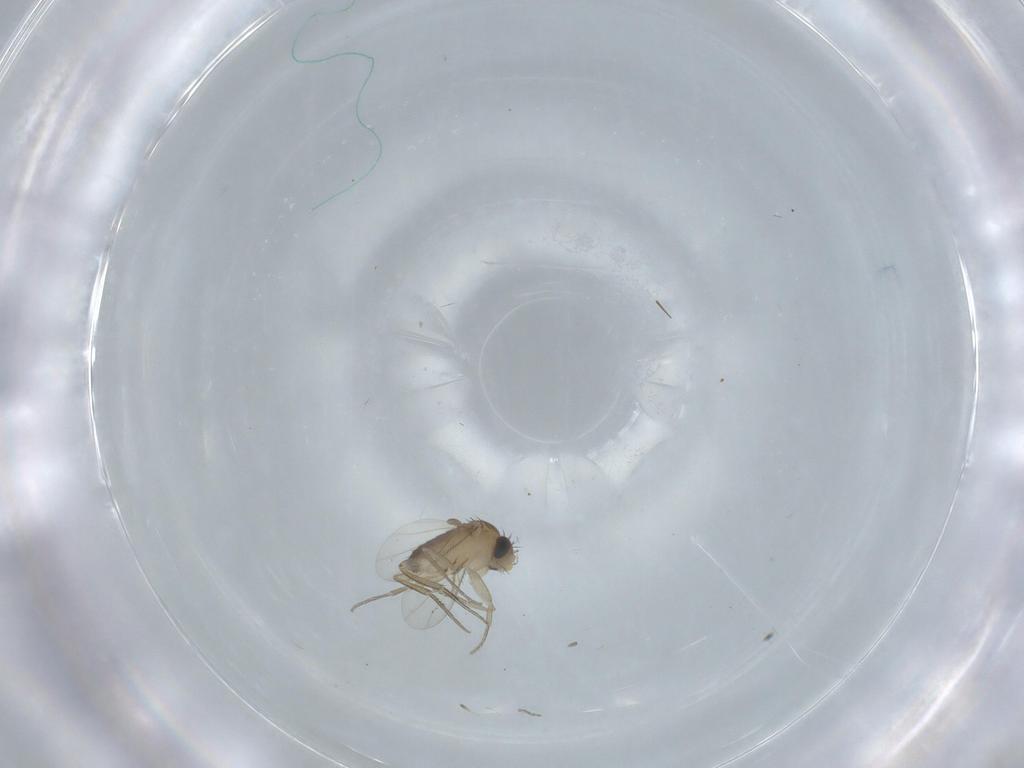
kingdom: Animalia
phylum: Arthropoda
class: Insecta
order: Diptera
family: Phoridae
